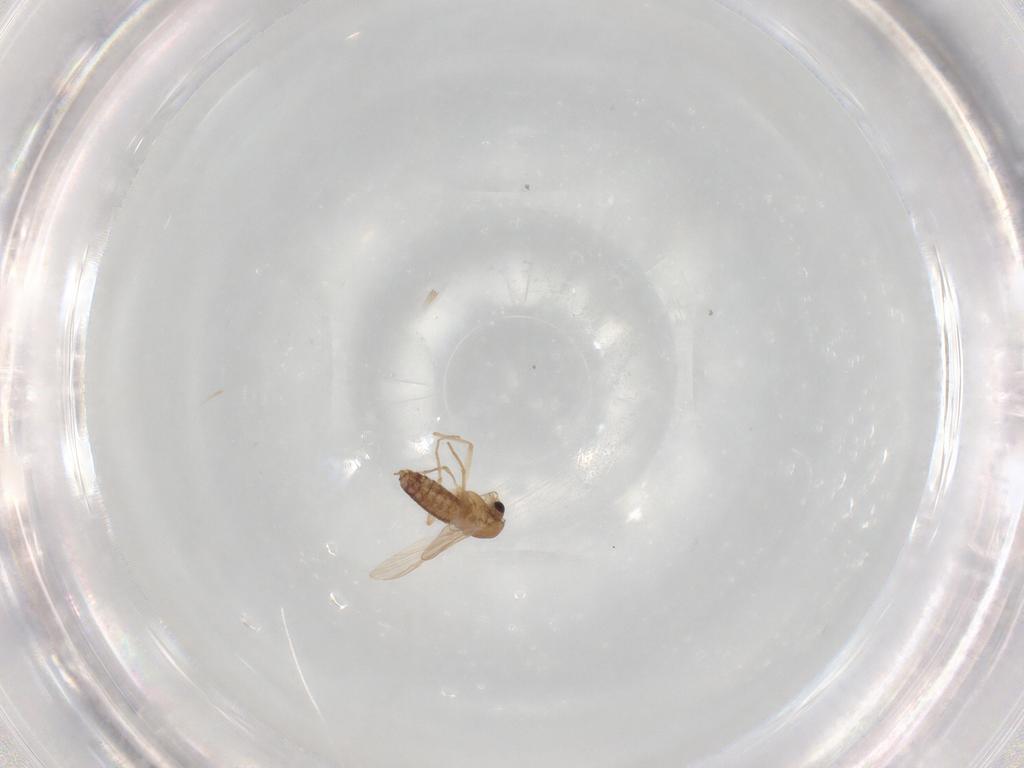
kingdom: Animalia
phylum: Arthropoda
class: Insecta
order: Diptera
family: Chironomidae
